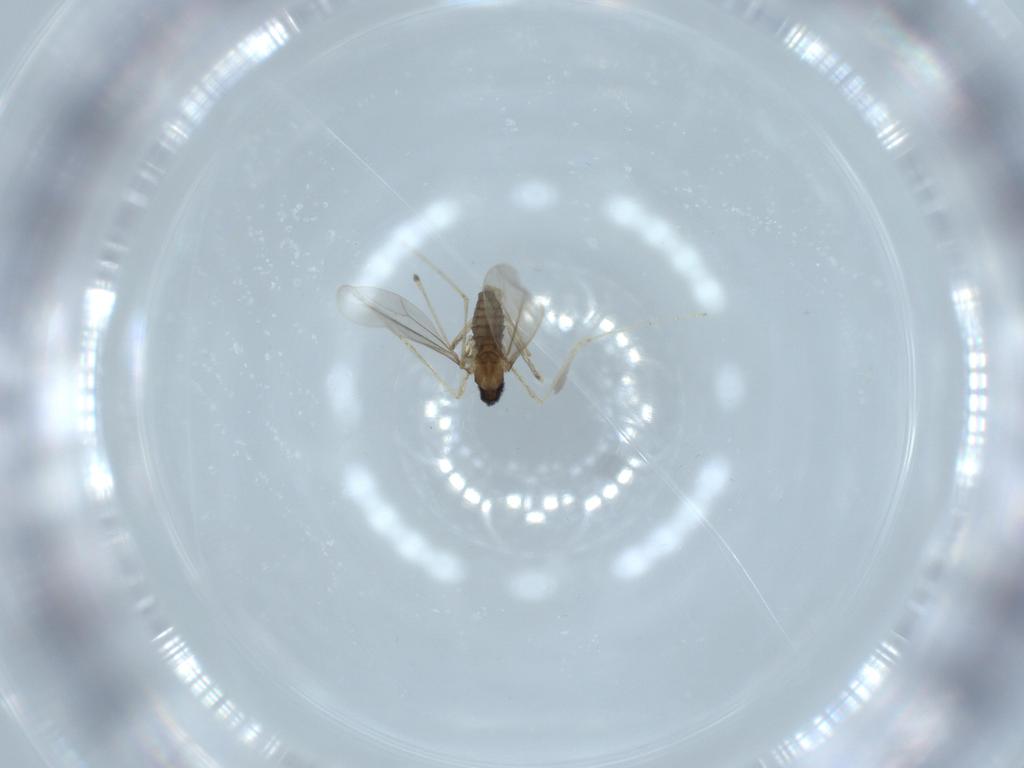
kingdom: Animalia
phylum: Arthropoda
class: Insecta
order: Diptera
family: Cecidomyiidae
